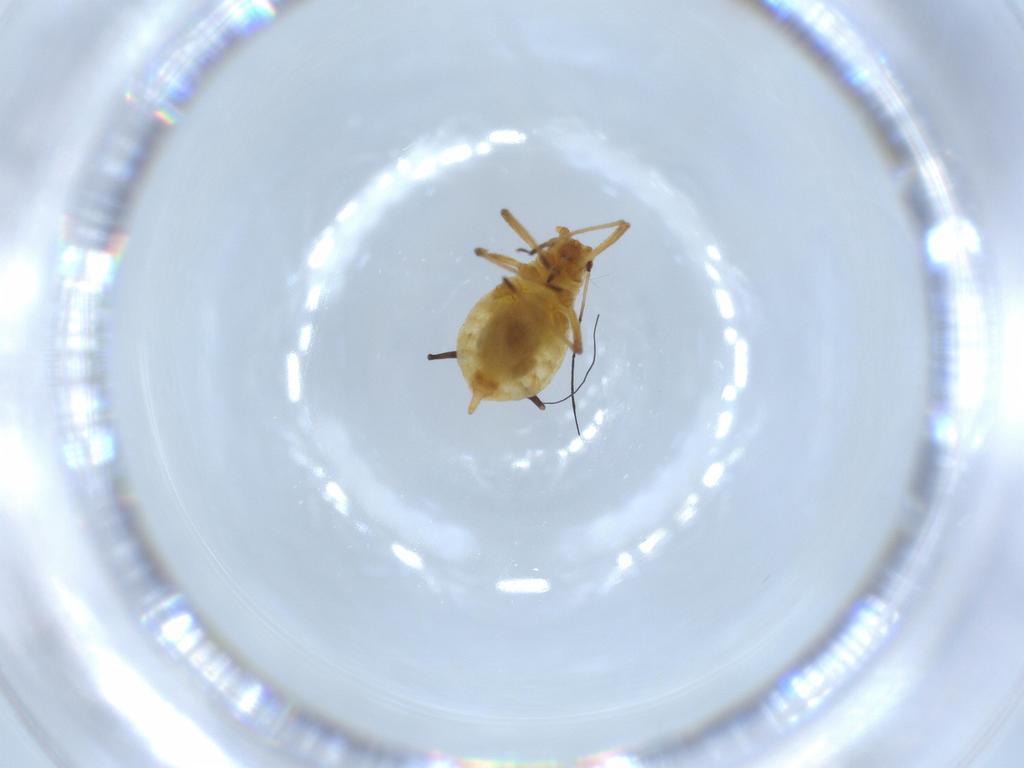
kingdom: Animalia
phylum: Arthropoda
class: Insecta
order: Hemiptera
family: Aphididae
